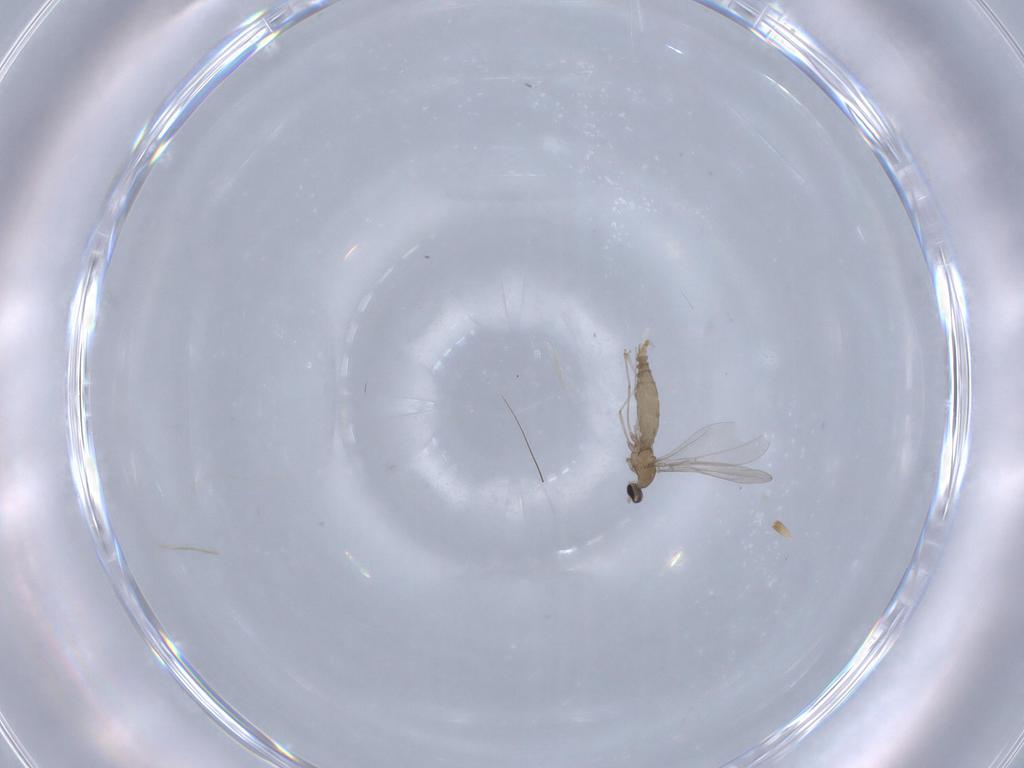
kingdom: Animalia
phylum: Arthropoda
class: Insecta
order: Diptera
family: Cecidomyiidae
